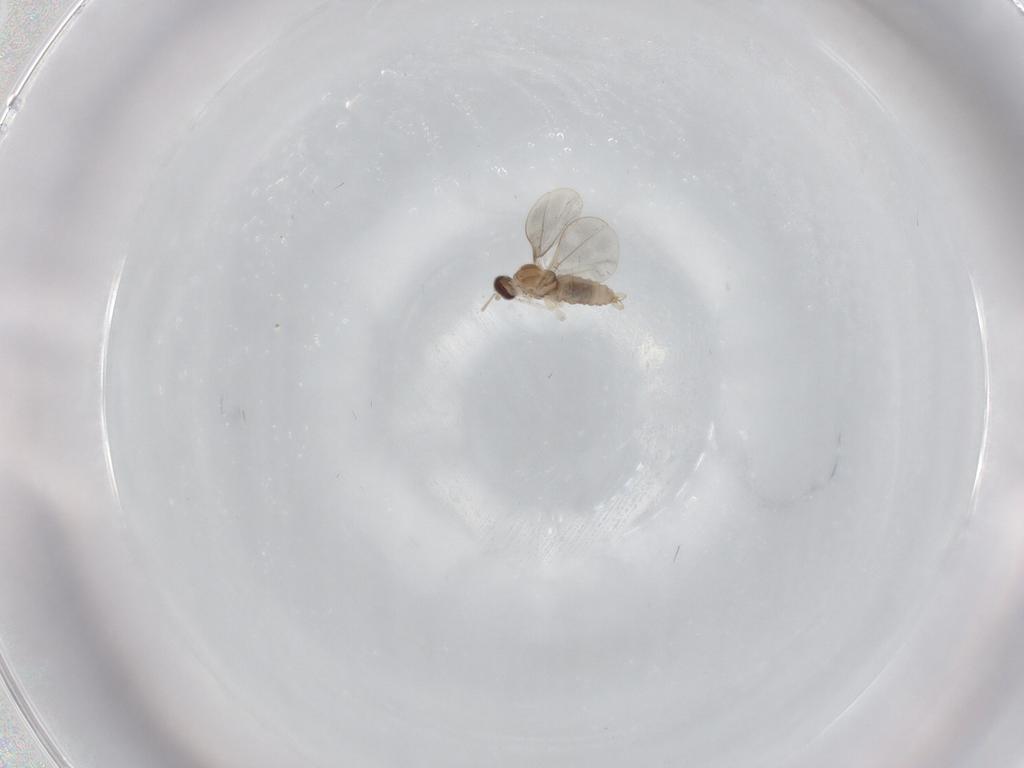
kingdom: Animalia
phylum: Arthropoda
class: Insecta
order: Diptera
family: Cecidomyiidae
